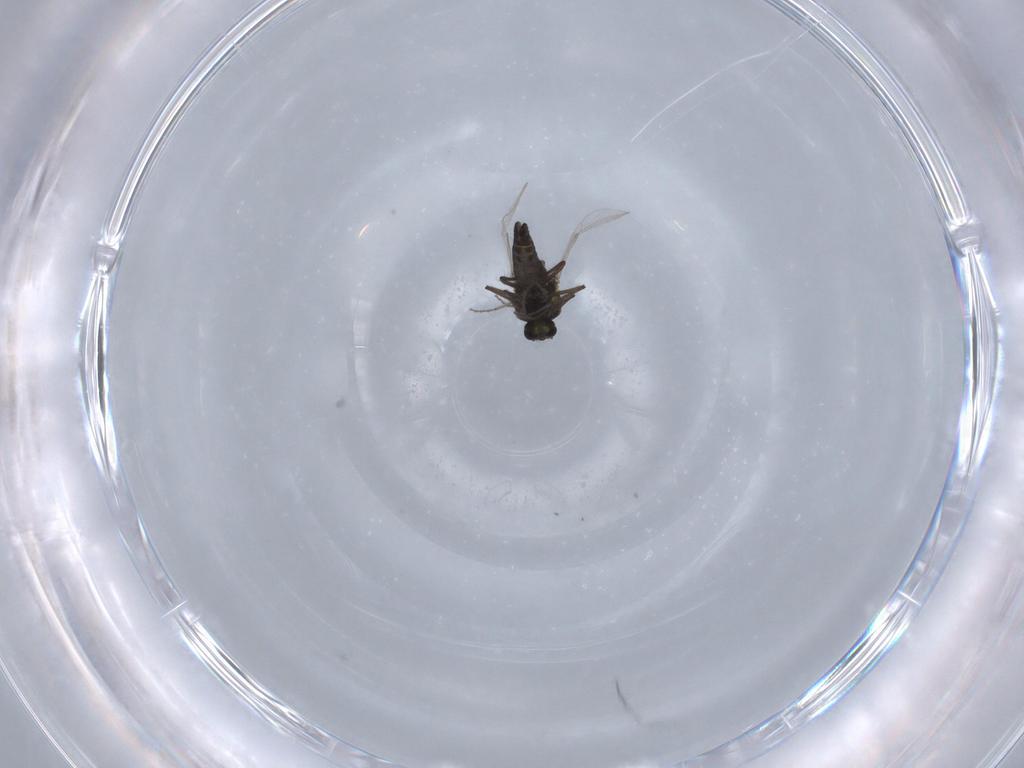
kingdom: Animalia
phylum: Arthropoda
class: Insecta
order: Diptera
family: Ceratopogonidae
